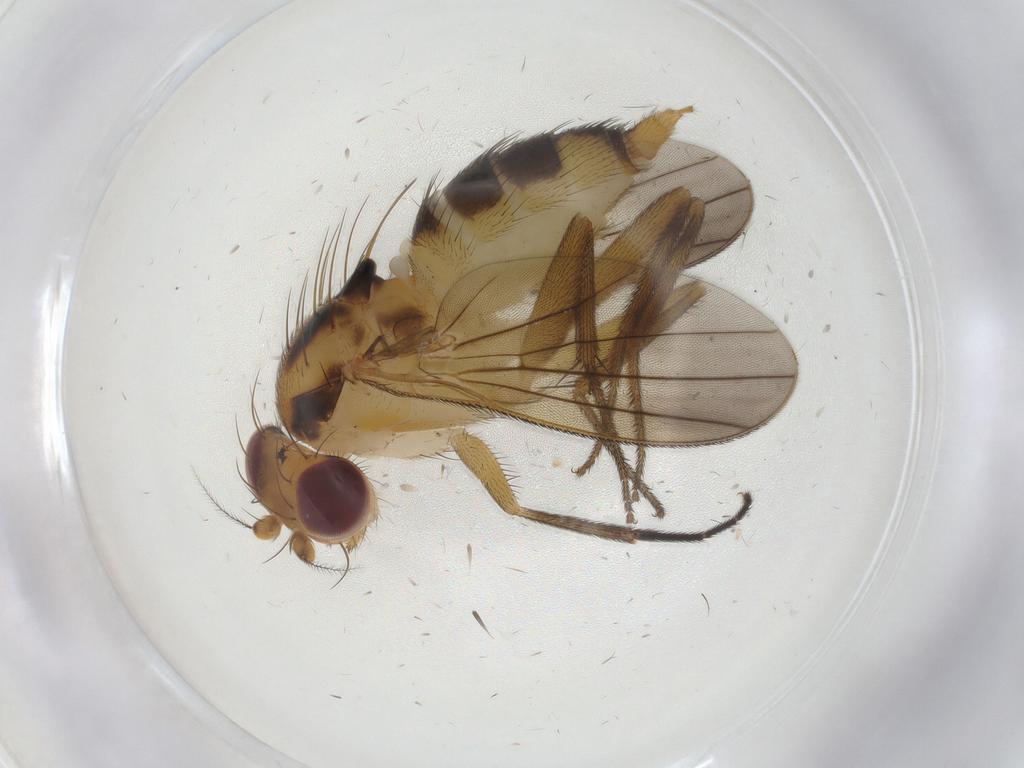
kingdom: Animalia
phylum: Arthropoda
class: Insecta
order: Diptera
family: Clusiidae
